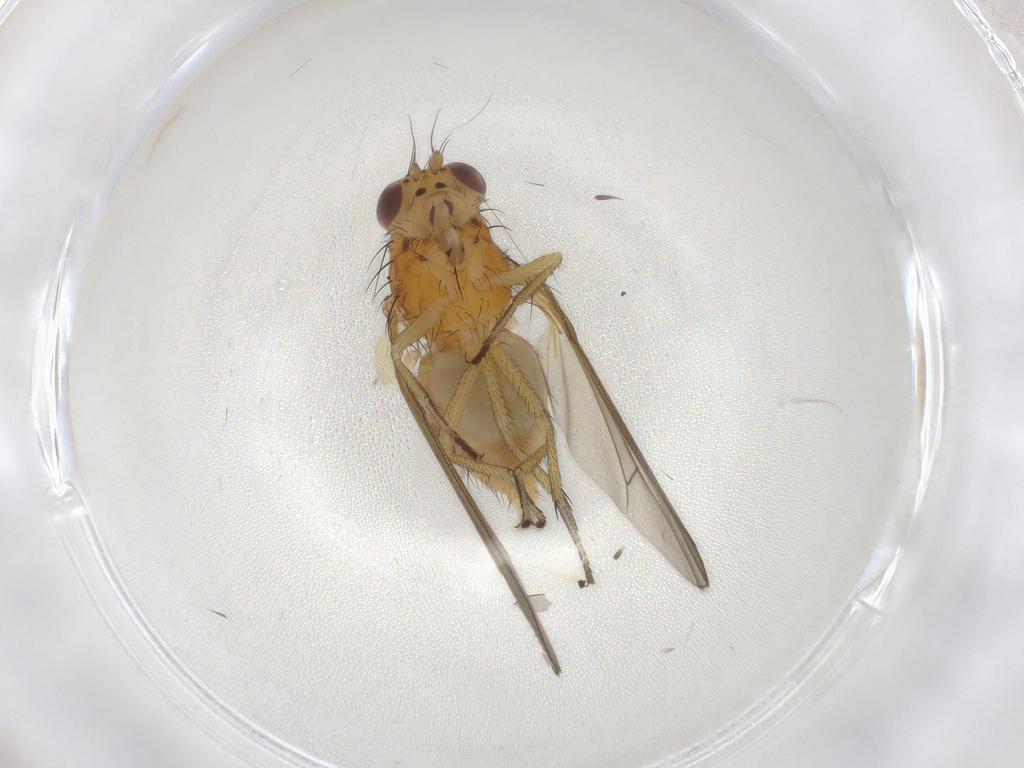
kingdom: Animalia
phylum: Arthropoda
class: Insecta
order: Diptera
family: Lauxaniidae
